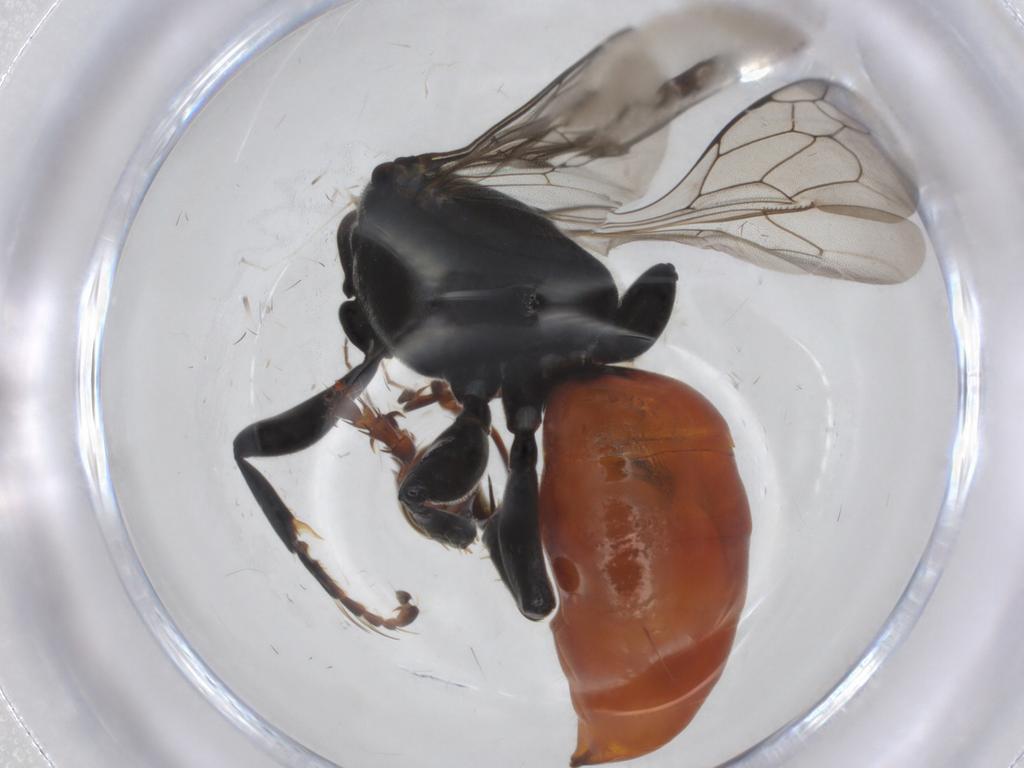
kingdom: Animalia
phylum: Arthropoda
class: Insecta
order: Hymenoptera
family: Crabronidae
